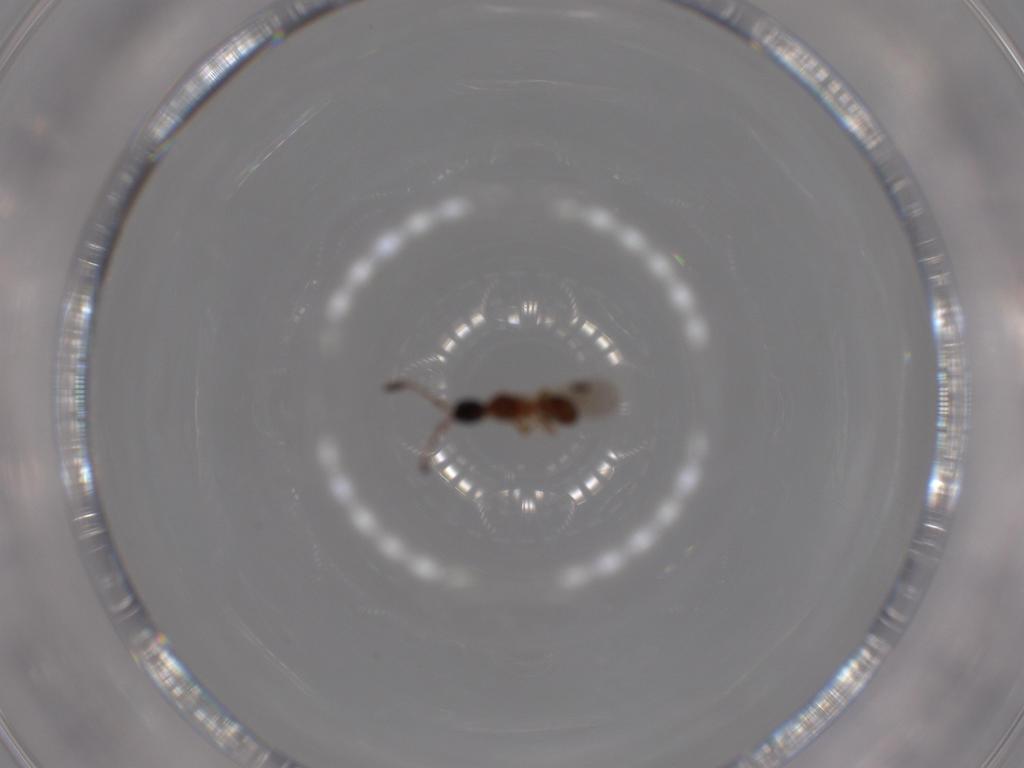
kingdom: Animalia
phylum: Arthropoda
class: Insecta
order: Hymenoptera
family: Diapriidae
